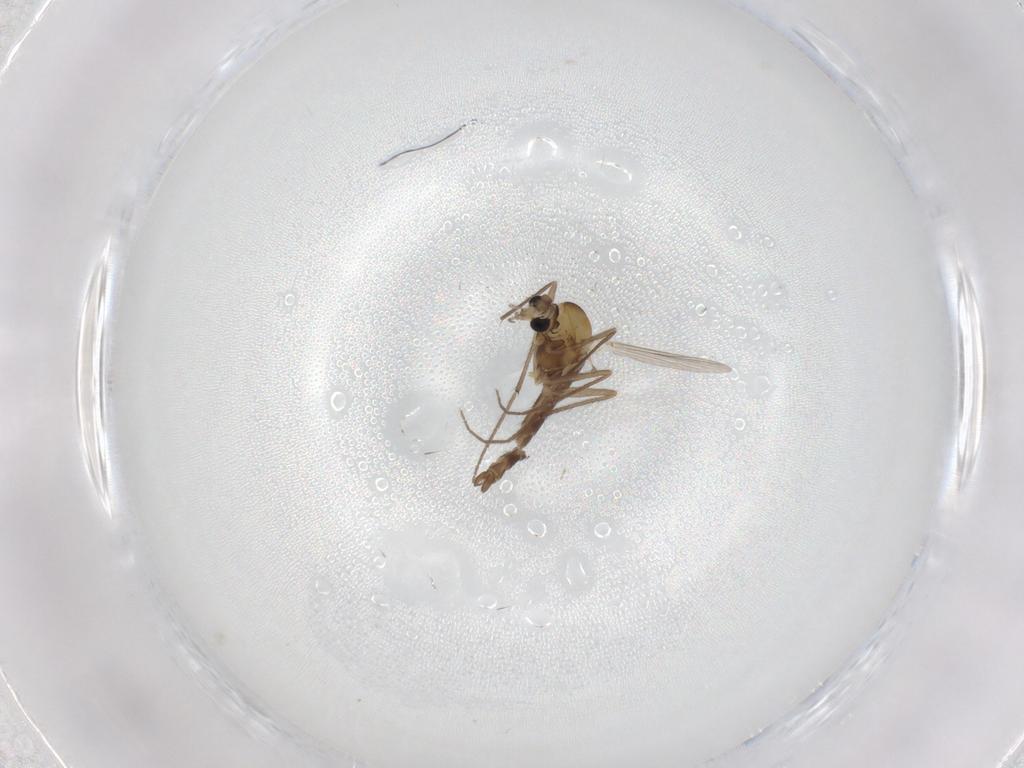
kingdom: Animalia
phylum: Arthropoda
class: Insecta
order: Diptera
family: Chironomidae
